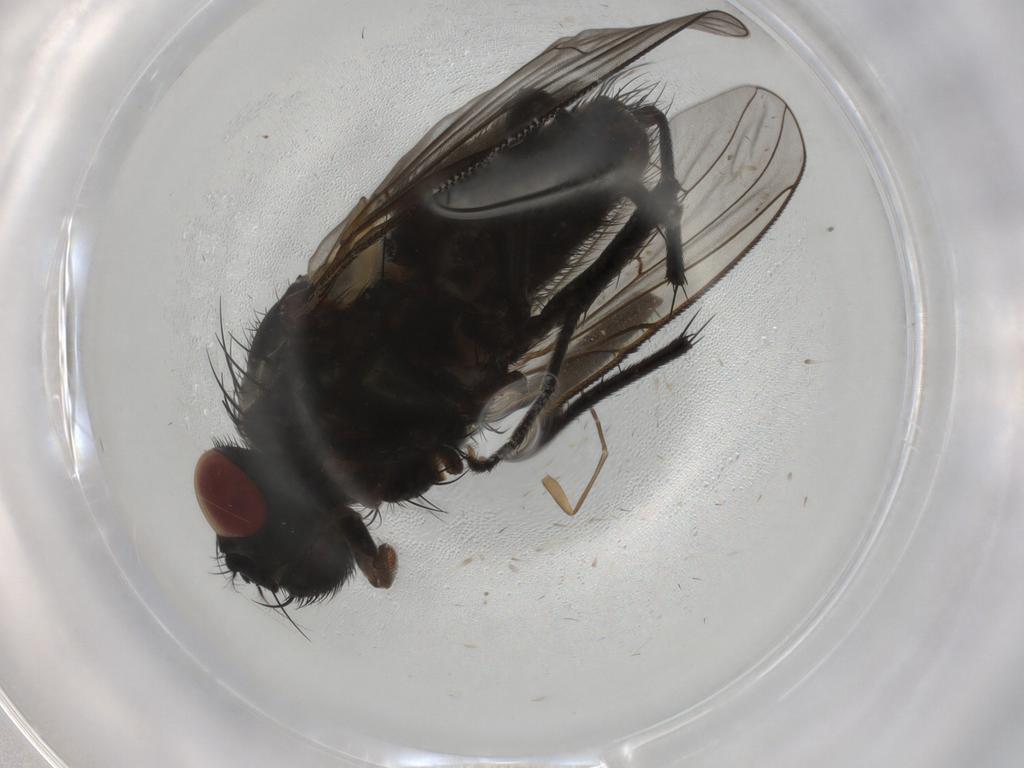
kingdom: Animalia
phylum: Arthropoda
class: Insecta
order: Diptera
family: Muscidae
